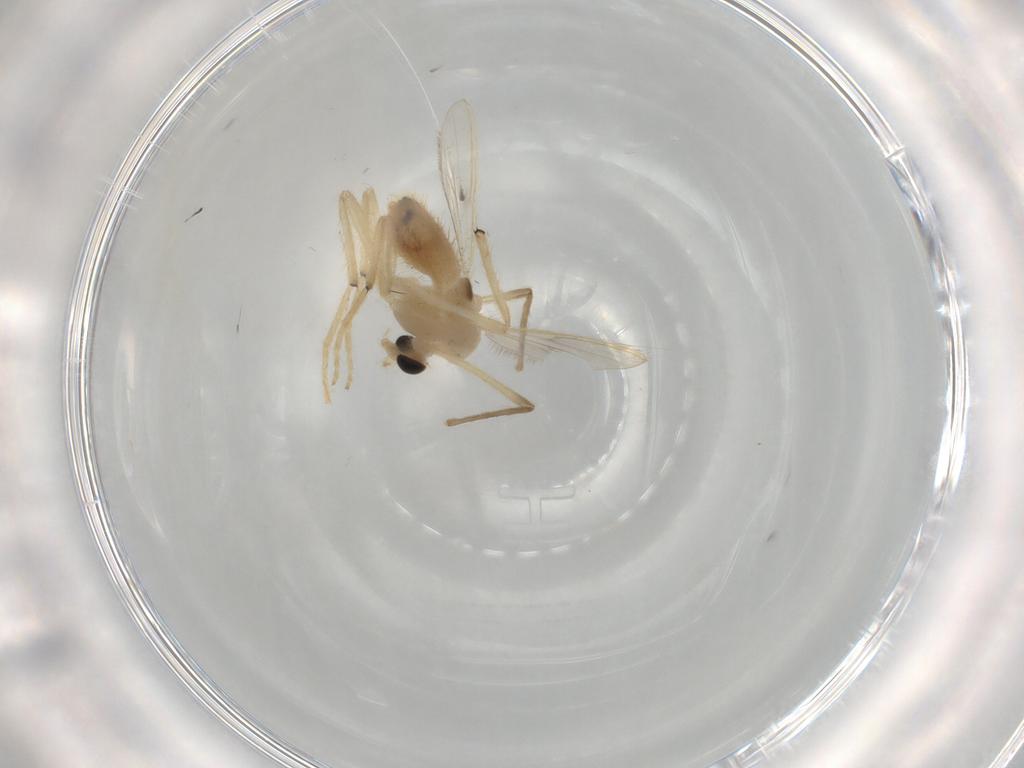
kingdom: Animalia
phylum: Arthropoda
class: Insecta
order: Diptera
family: Chironomidae
